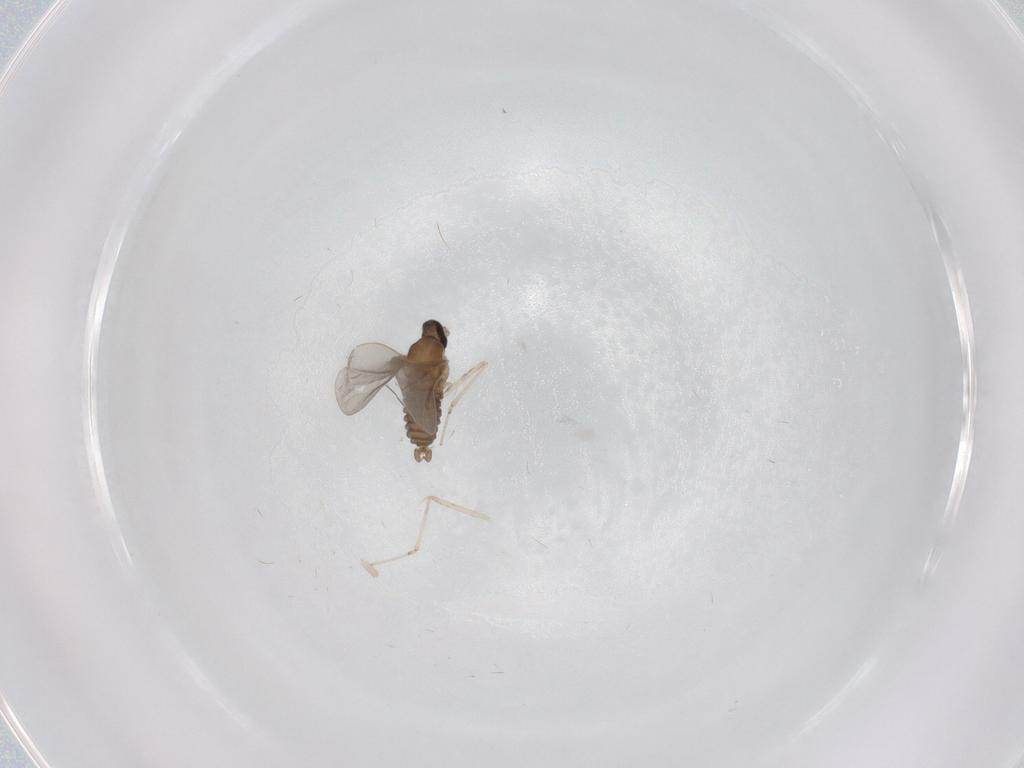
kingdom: Animalia
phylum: Arthropoda
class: Insecta
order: Diptera
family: Cecidomyiidae
